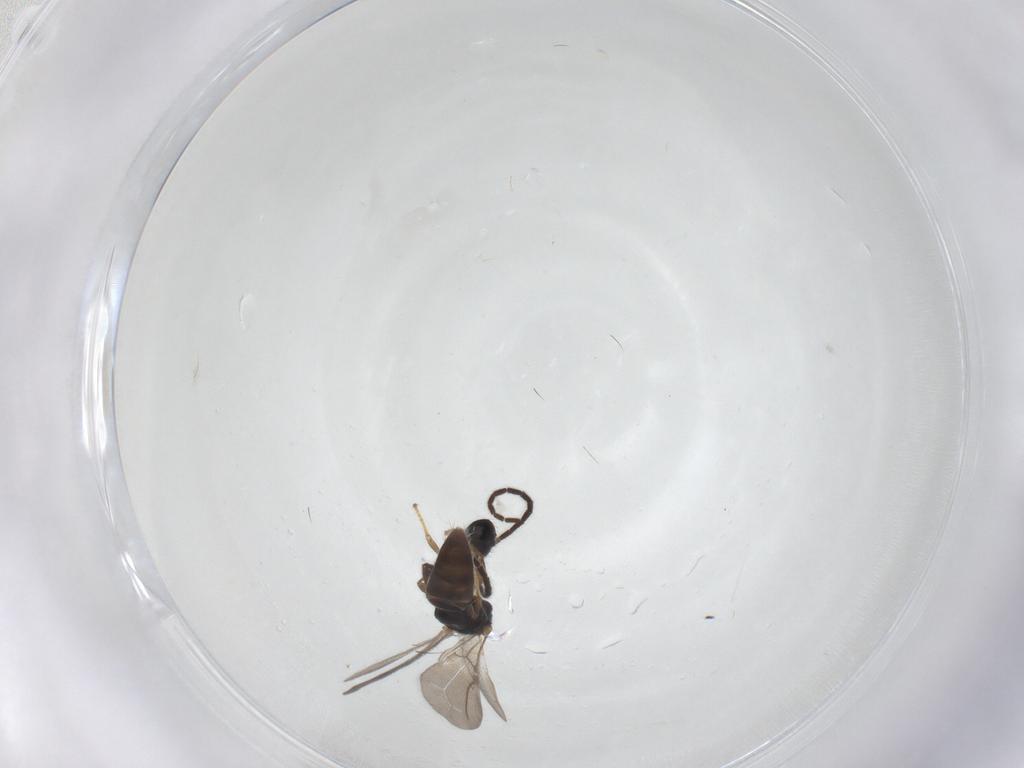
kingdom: Animalia
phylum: Arthropoda
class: Insecta
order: Hymenoptera
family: Bethylidae
